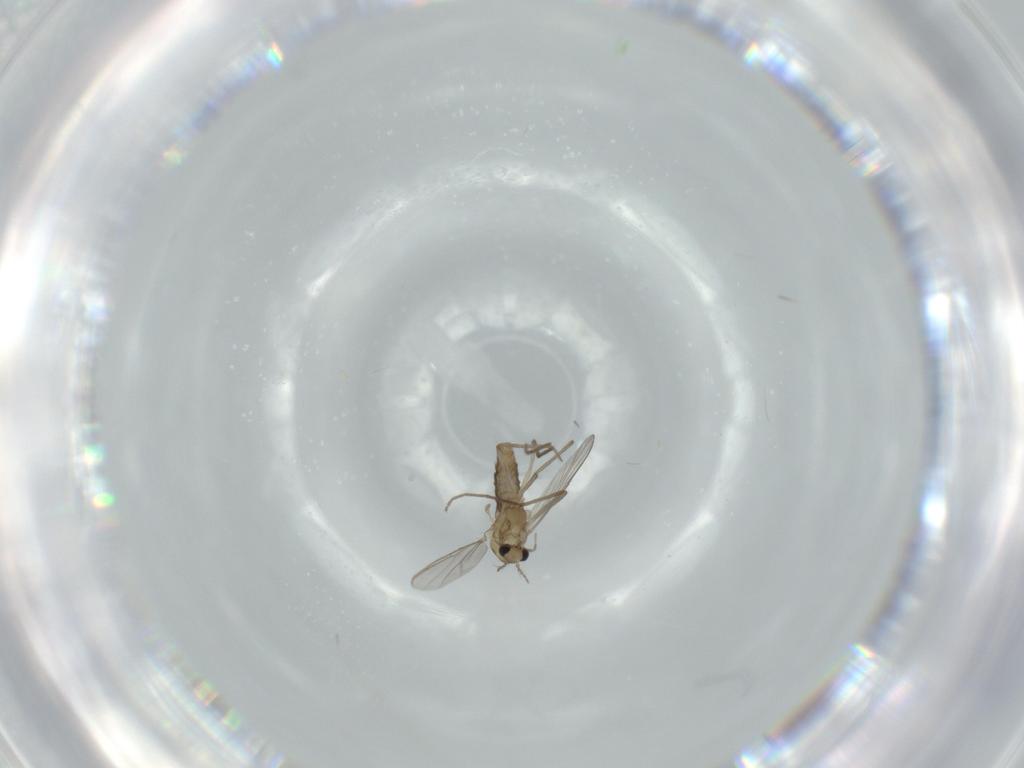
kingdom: Animalia
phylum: Arthropoda
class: Insecta
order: Diptera
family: Chironomidae
